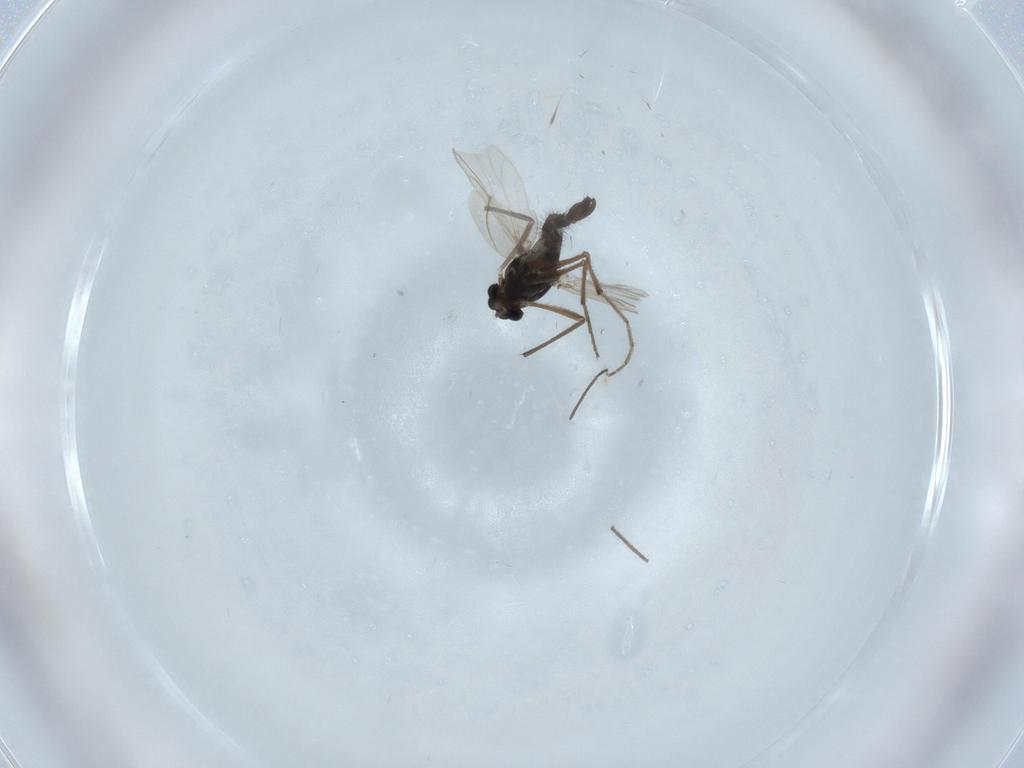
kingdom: Animalia
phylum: Arthropoda
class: Insecta
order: Diptera
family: Chironomidae
